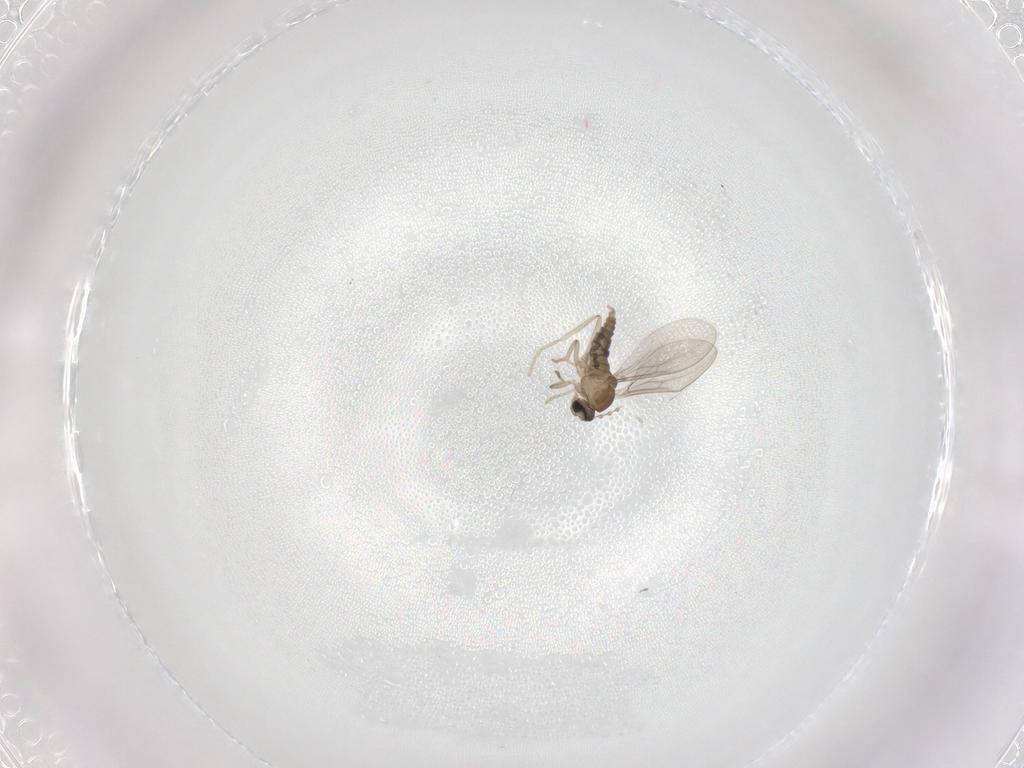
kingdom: Animalia
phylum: Arthropoda
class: Insecta
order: Diptera
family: Cecidomyiidae
